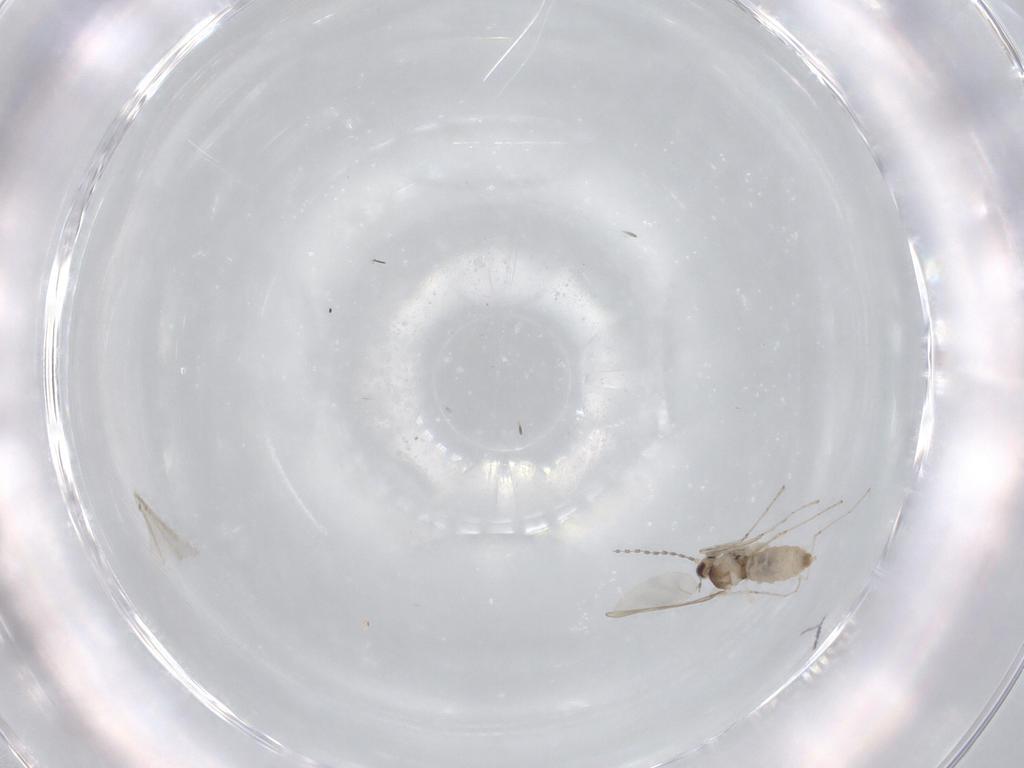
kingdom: Animalia
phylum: Arthropoda
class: Insecta
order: Diptera
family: Cecidomyiidae
